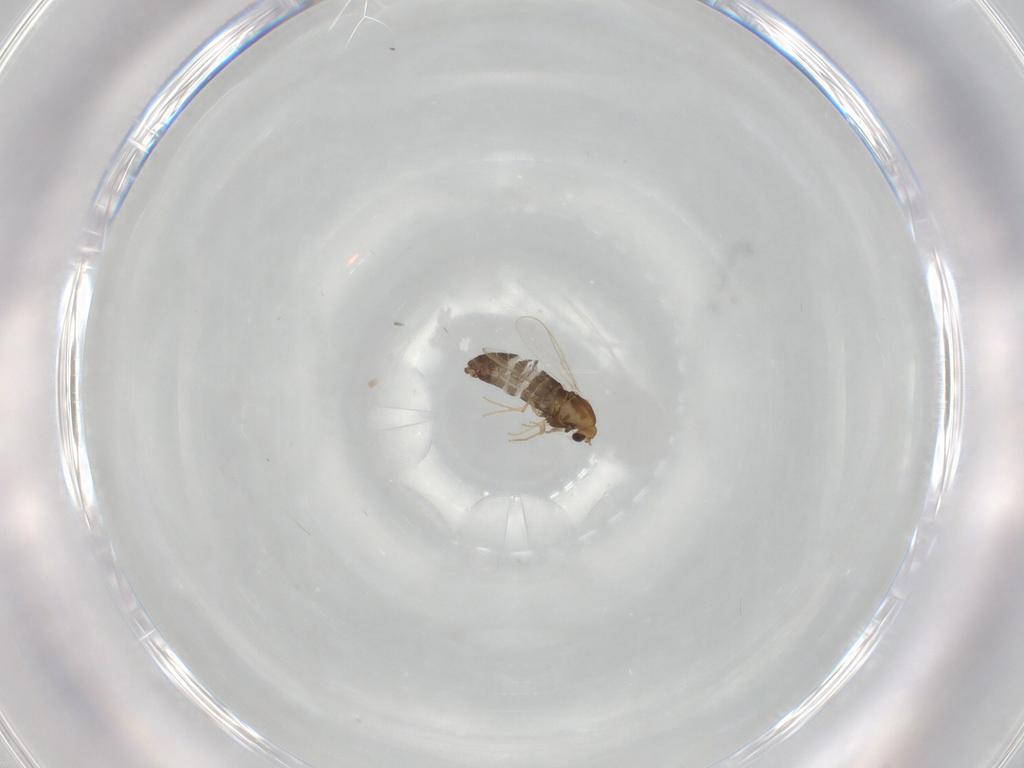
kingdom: Animalia
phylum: Arthropoda
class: Insecta
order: Diptera
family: Chironomidae
